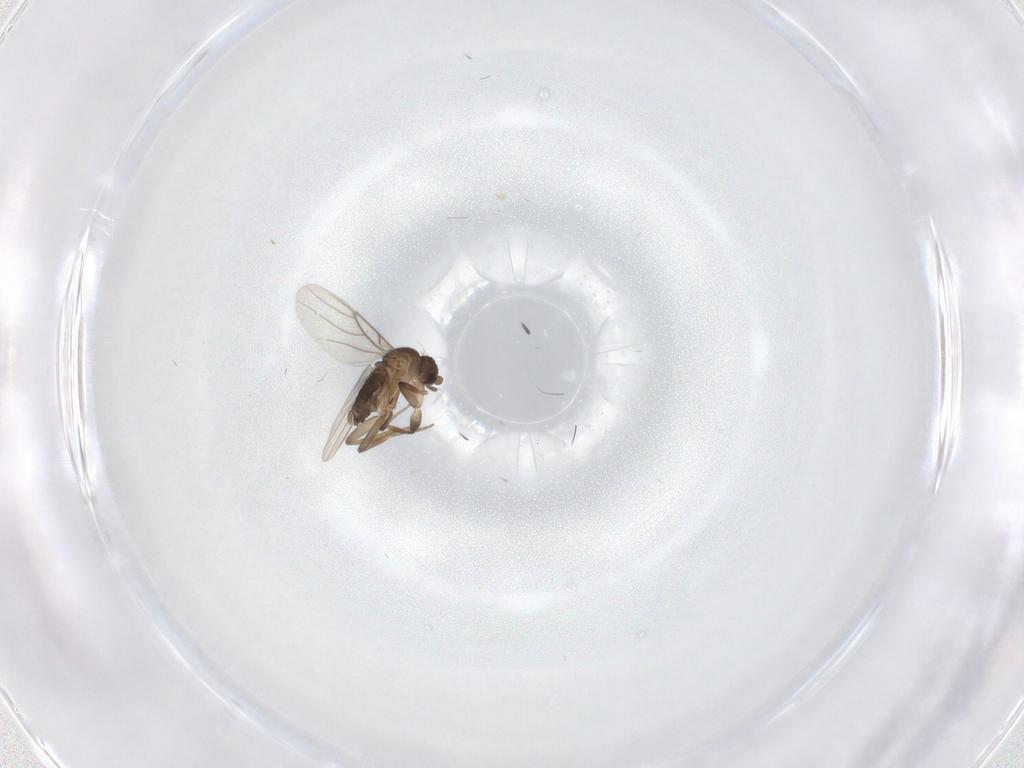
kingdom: Animalia
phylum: Arthropoda
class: Insecta
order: Diptera
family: Phoridae
